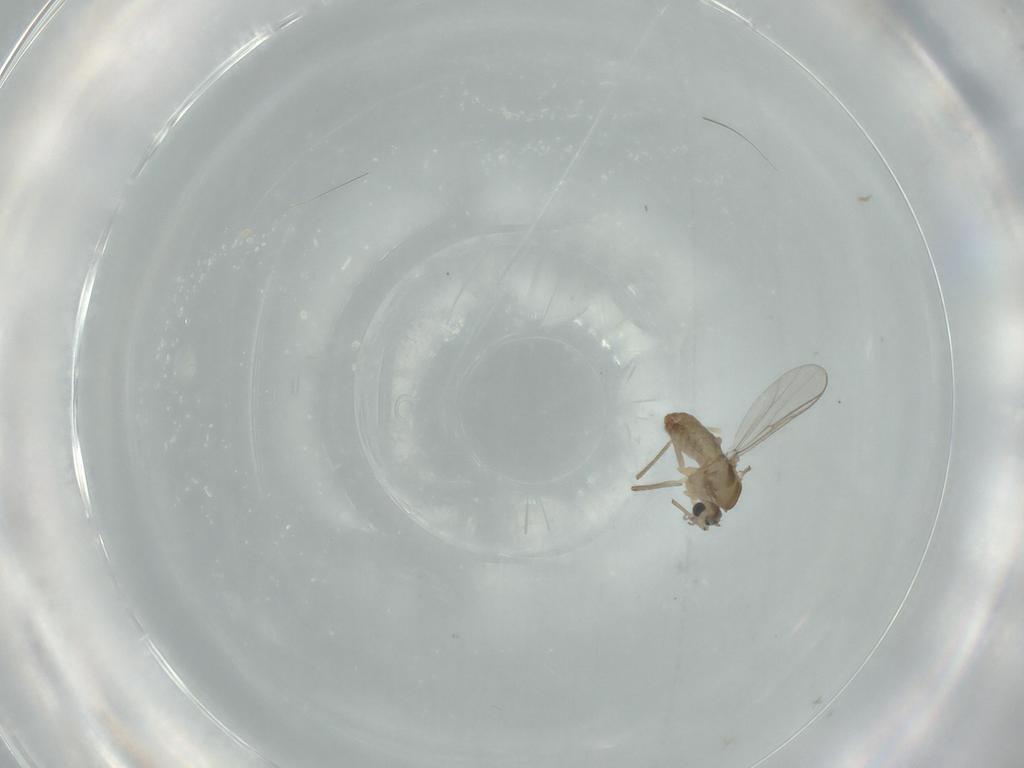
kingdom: Animalia
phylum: Arthropoda
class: Insecta
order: Diptera
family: Chironomidae
